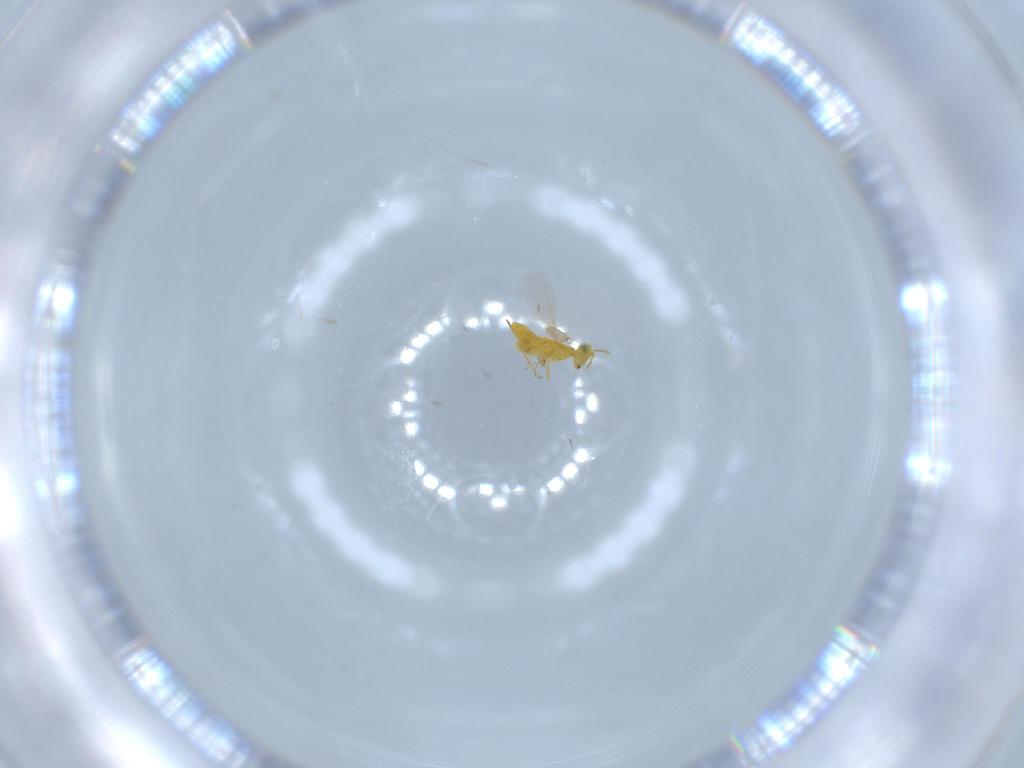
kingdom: Animalia
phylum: Arthropoda
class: Insecta
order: Hymenoptera
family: Aphelinidae
